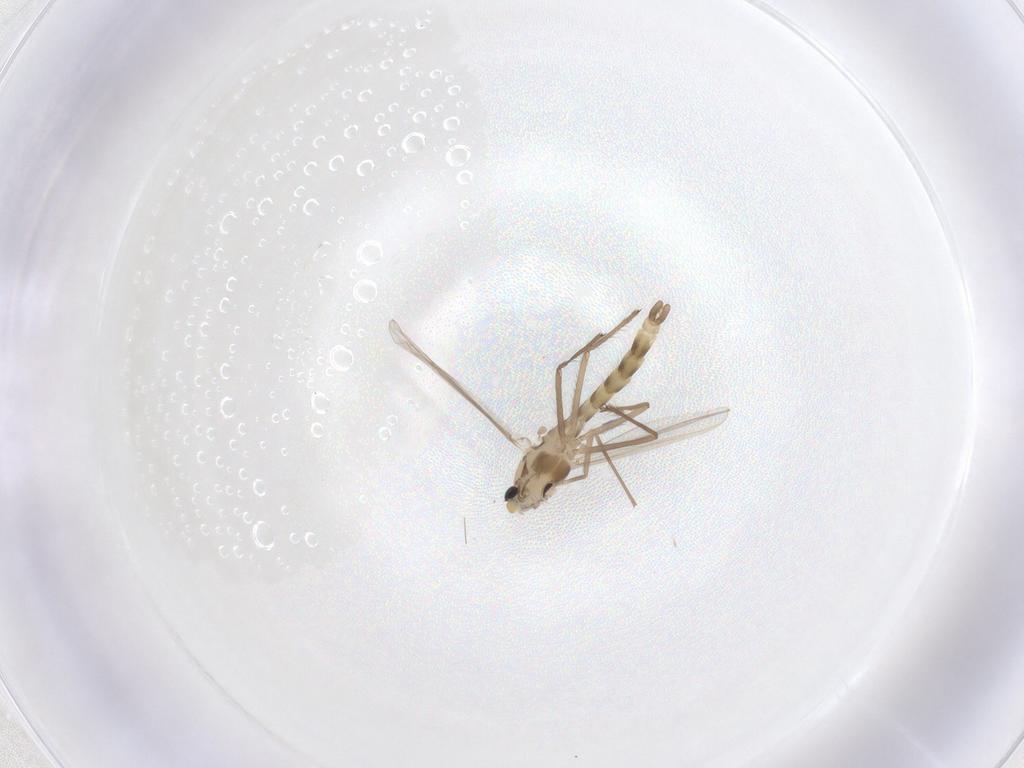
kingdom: Animalia
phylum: Arthropoda
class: Insecta
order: Diptera
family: Chironomidae
